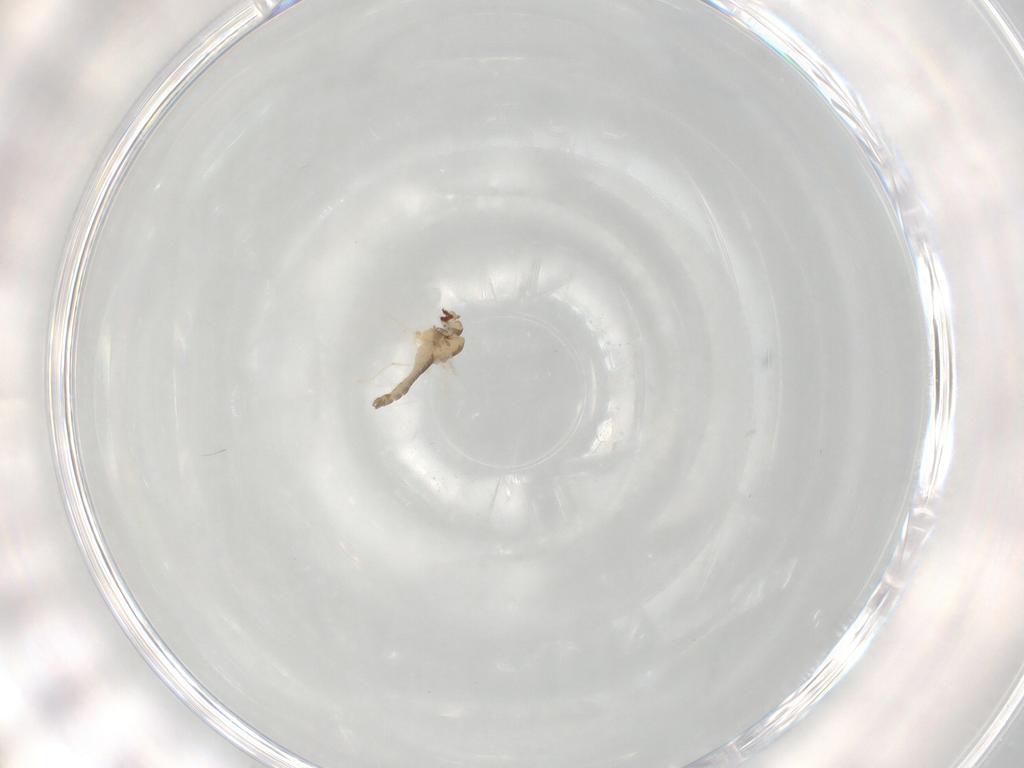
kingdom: Animalia
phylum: Arthropoda
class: Insecta
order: Diptera
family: Chironomidae
